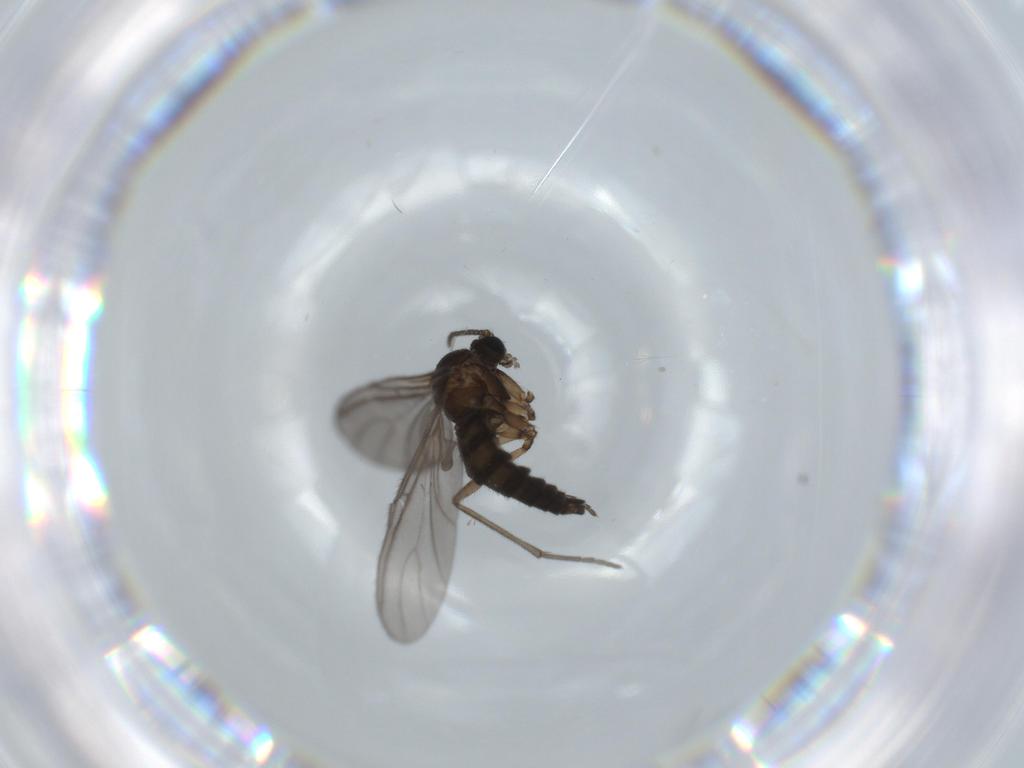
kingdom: Animalia
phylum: Arthropoda
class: Insecta
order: Diptera
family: Sciaridae
